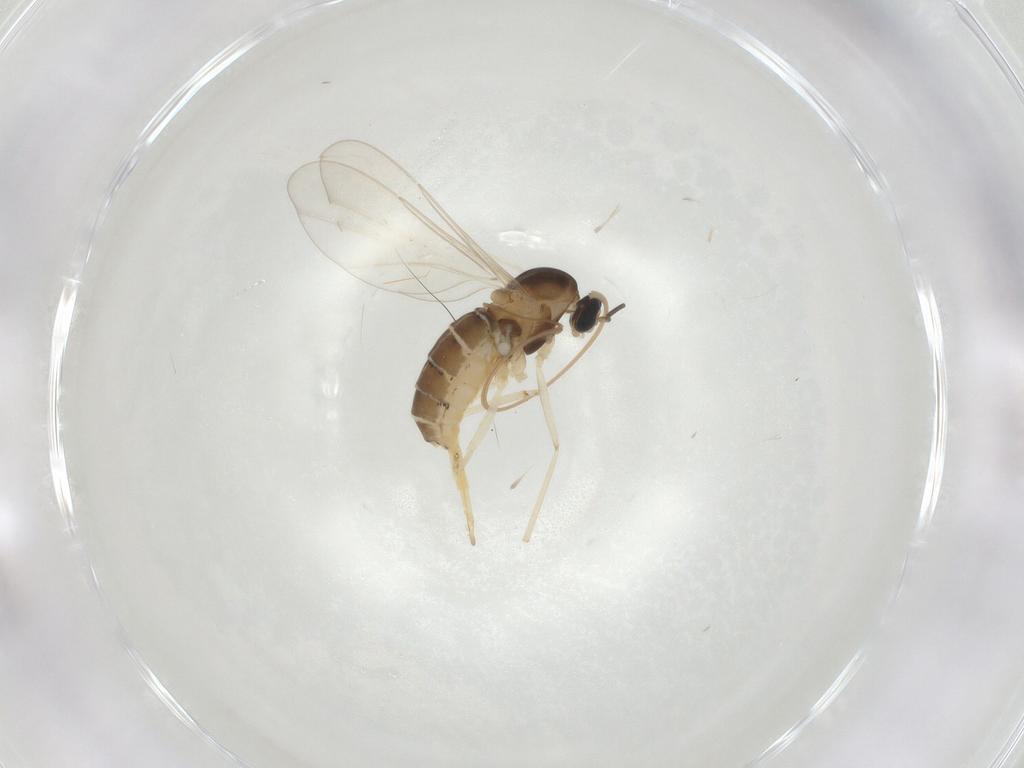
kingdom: Animalia
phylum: Arthropoda
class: Insecta
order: Diptera
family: Cecidomyiidae
